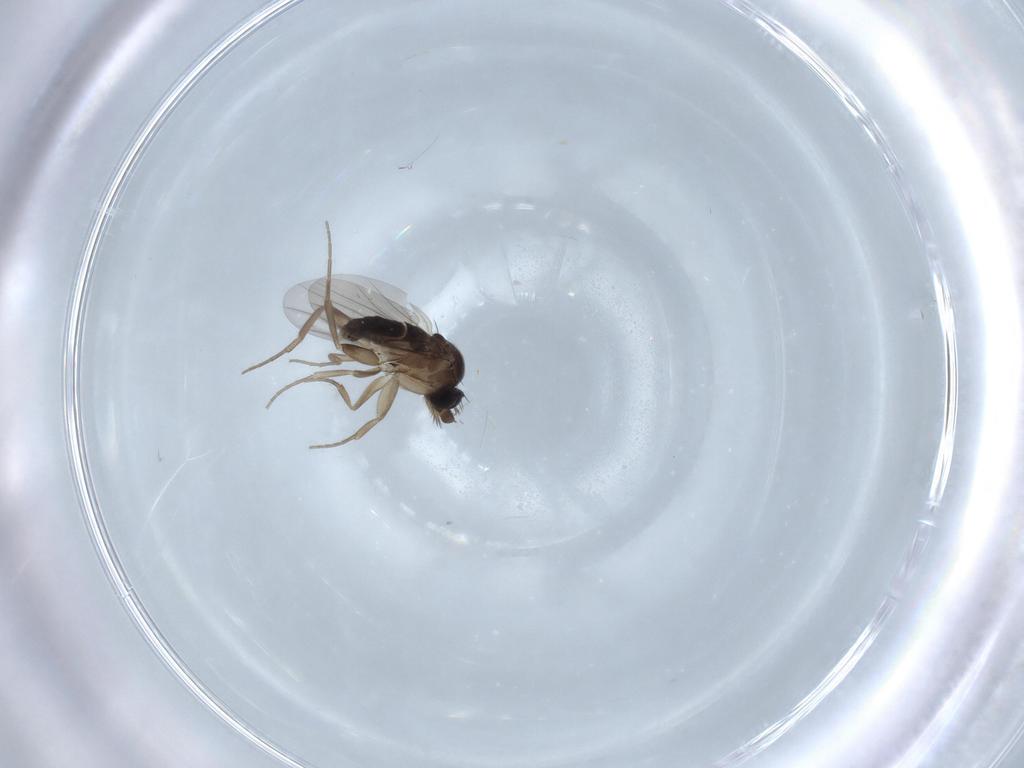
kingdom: Animalia
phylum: Arthropoda
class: Insecta
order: Diptera
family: Phoridae
